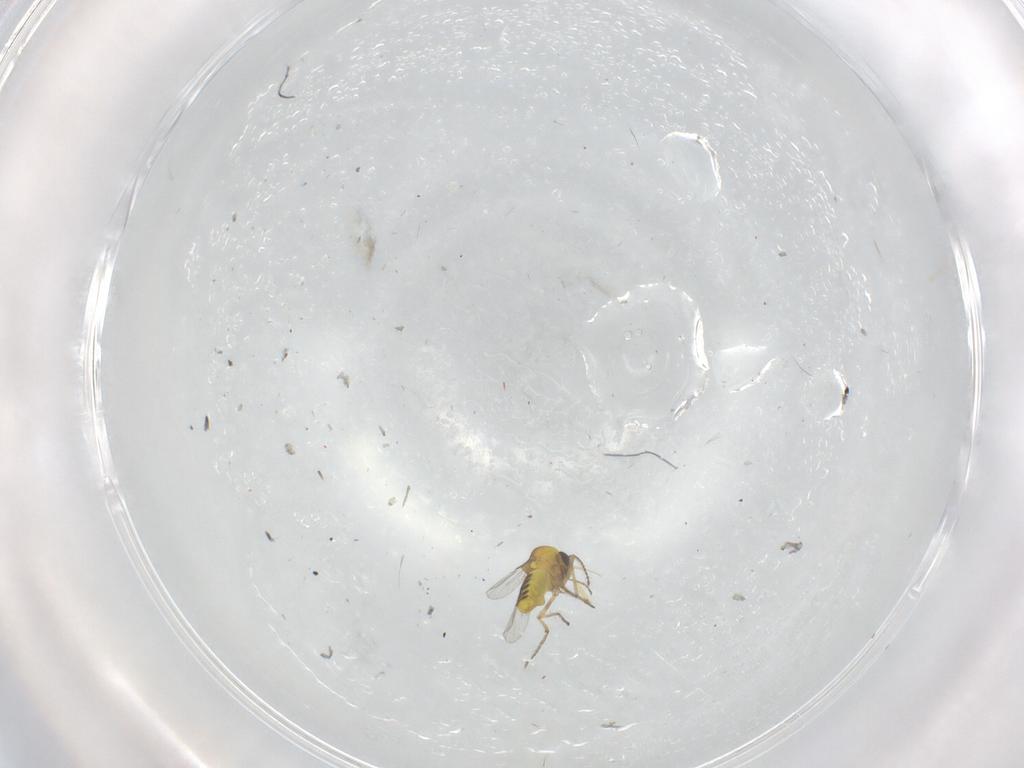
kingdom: Animalia
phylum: Arthropoda
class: Insecta
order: Diptera
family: Ceratopogonidae
